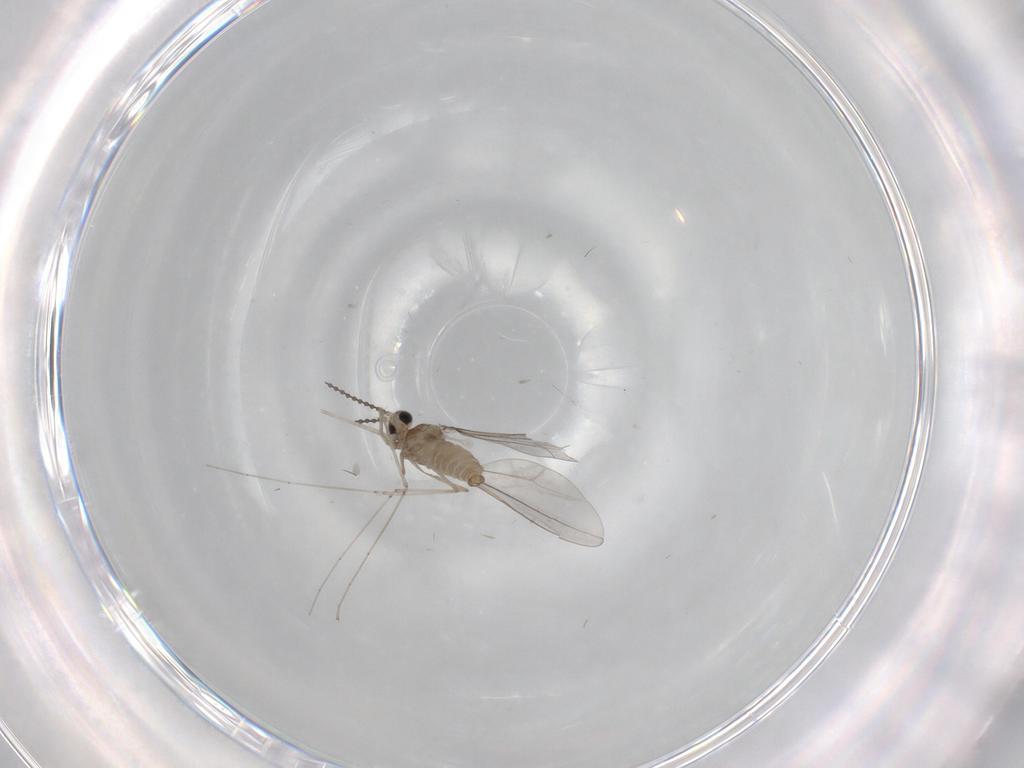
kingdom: Animalia
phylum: Arthropoda
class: Insecta
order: Diptera
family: Cecidomyiidae
